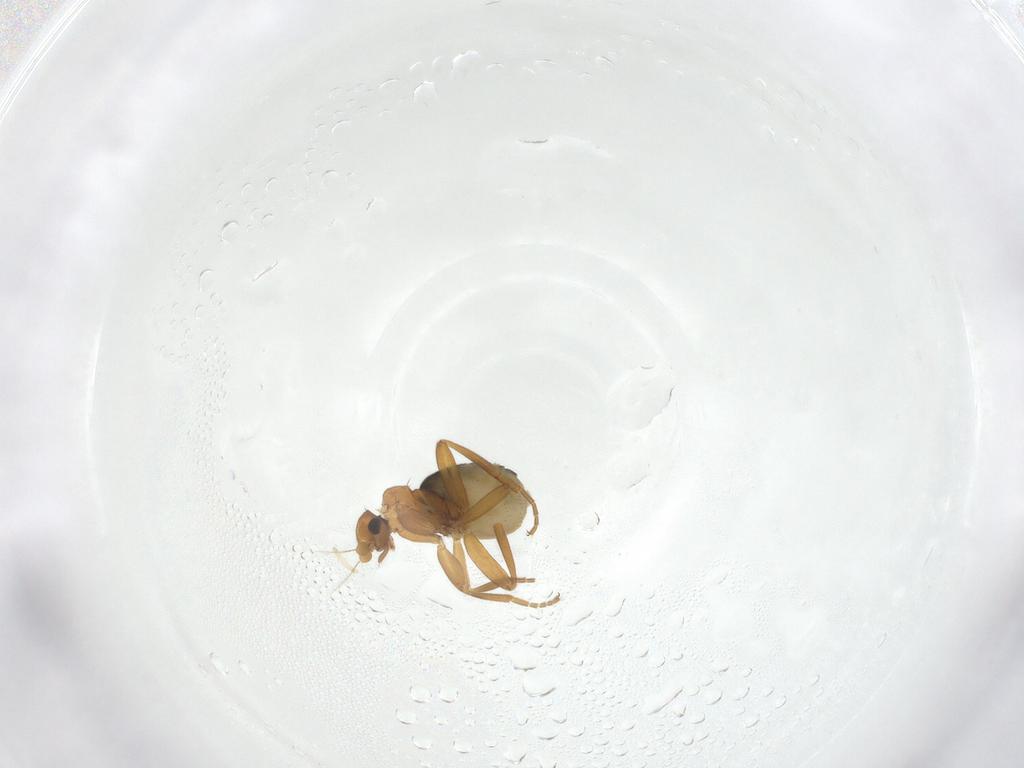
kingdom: Animalia
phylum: Arthropoda
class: Insecta
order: Diptera
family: Phoridae
